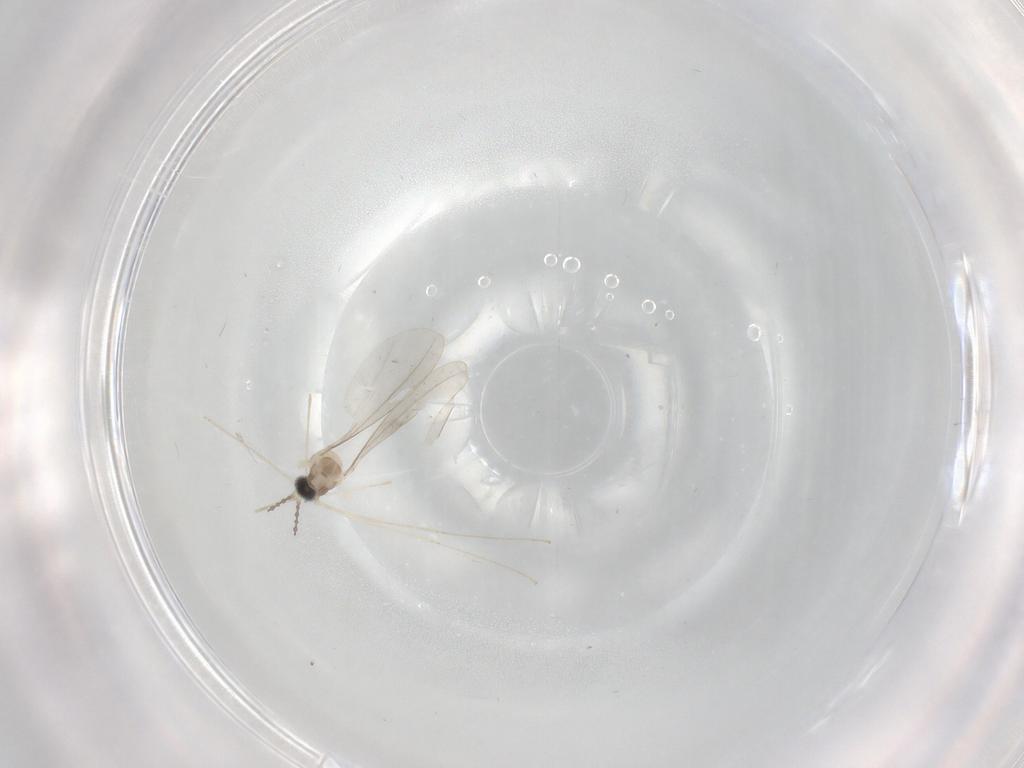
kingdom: Animalia
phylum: Arthropoda
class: Insecta
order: Diptera
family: Cecidomyiidae
